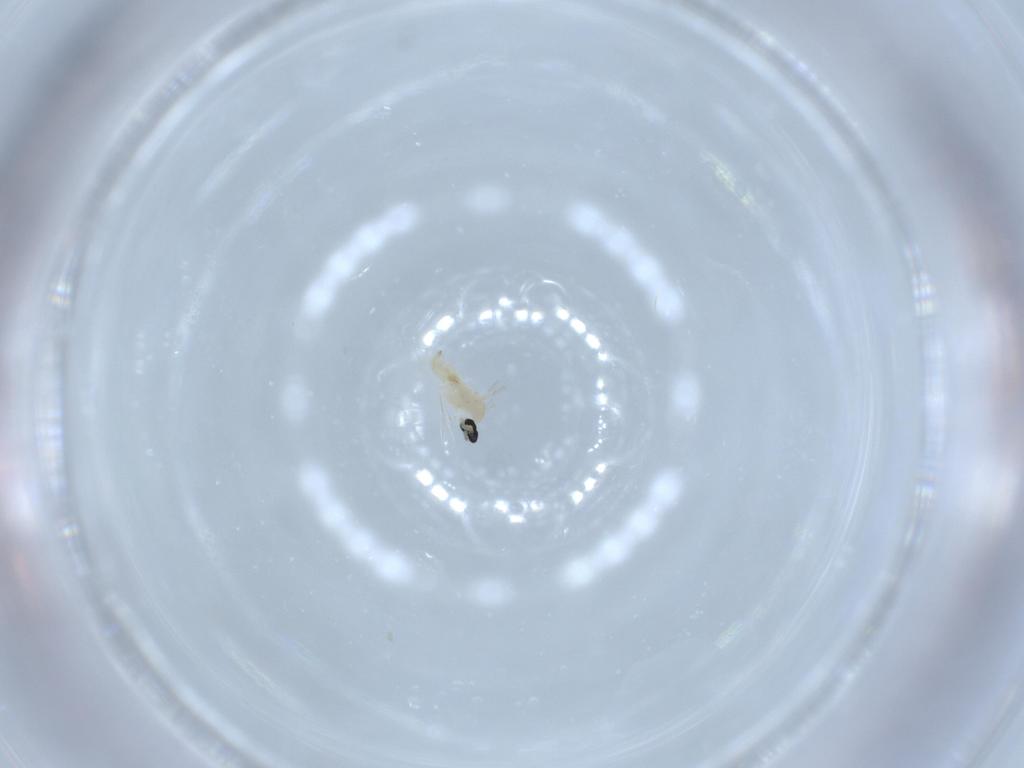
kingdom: Animalia
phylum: Arthropoda
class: Insecta
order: Diptera
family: Cecidomyiidae
